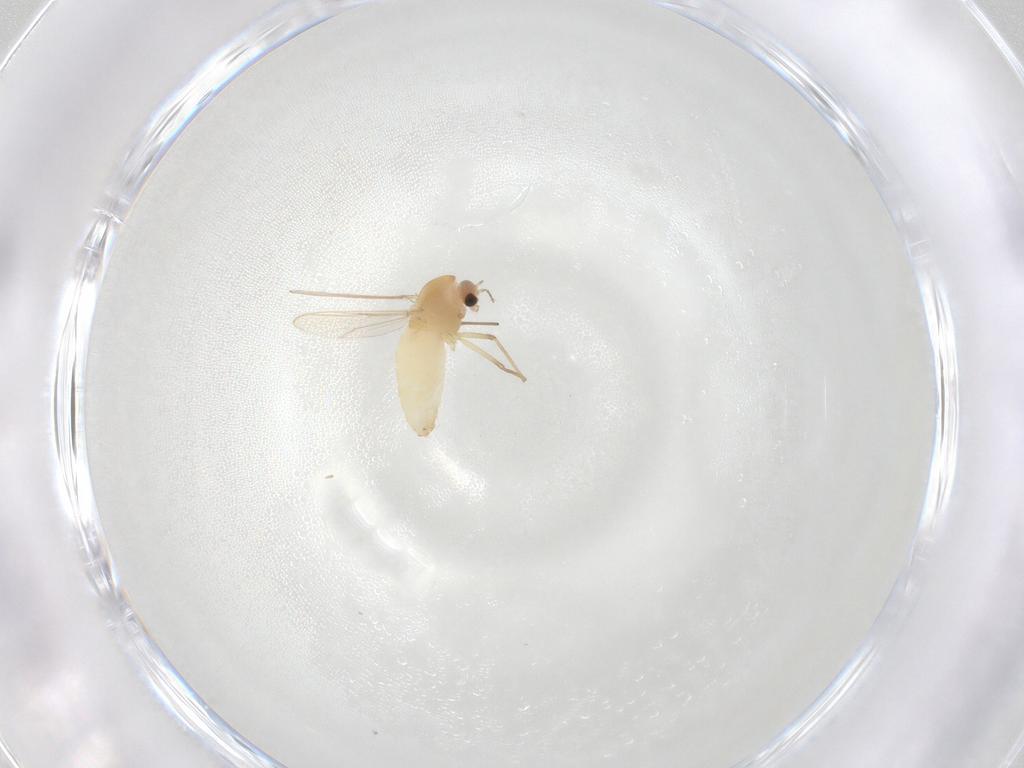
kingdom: Animalia
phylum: Arthropoda
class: Insecta
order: Diptera
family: Chironomidae
